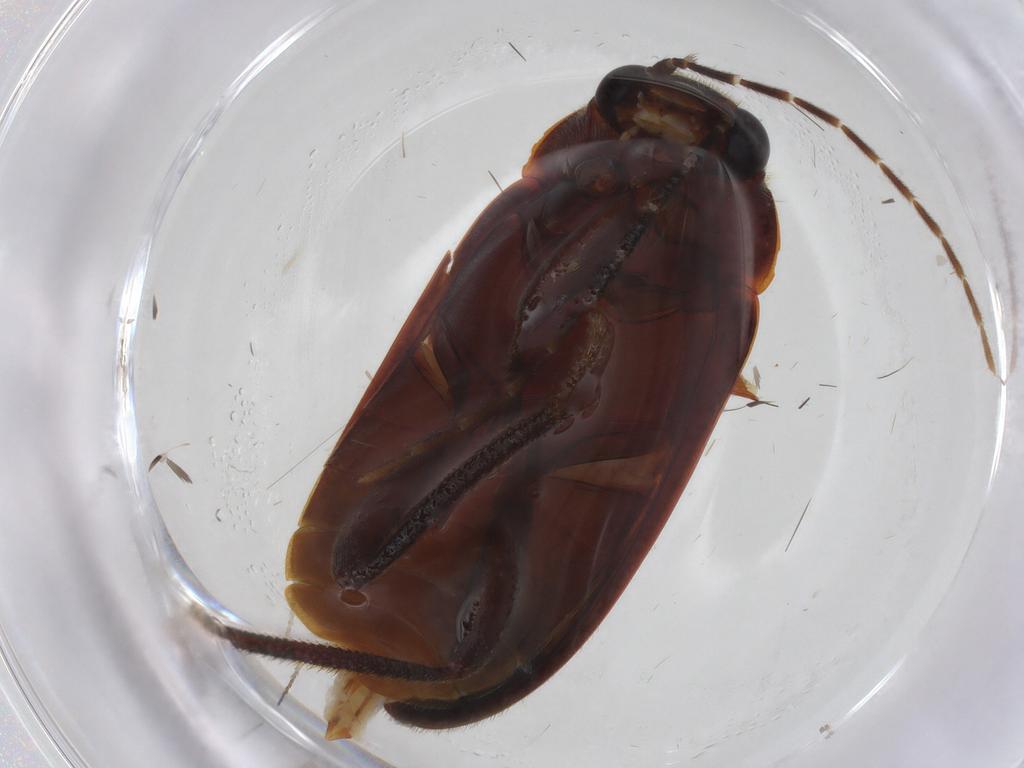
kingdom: Animalia
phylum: Arthropoda
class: Insecta
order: Coleoptera
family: Ptilodactylidae
